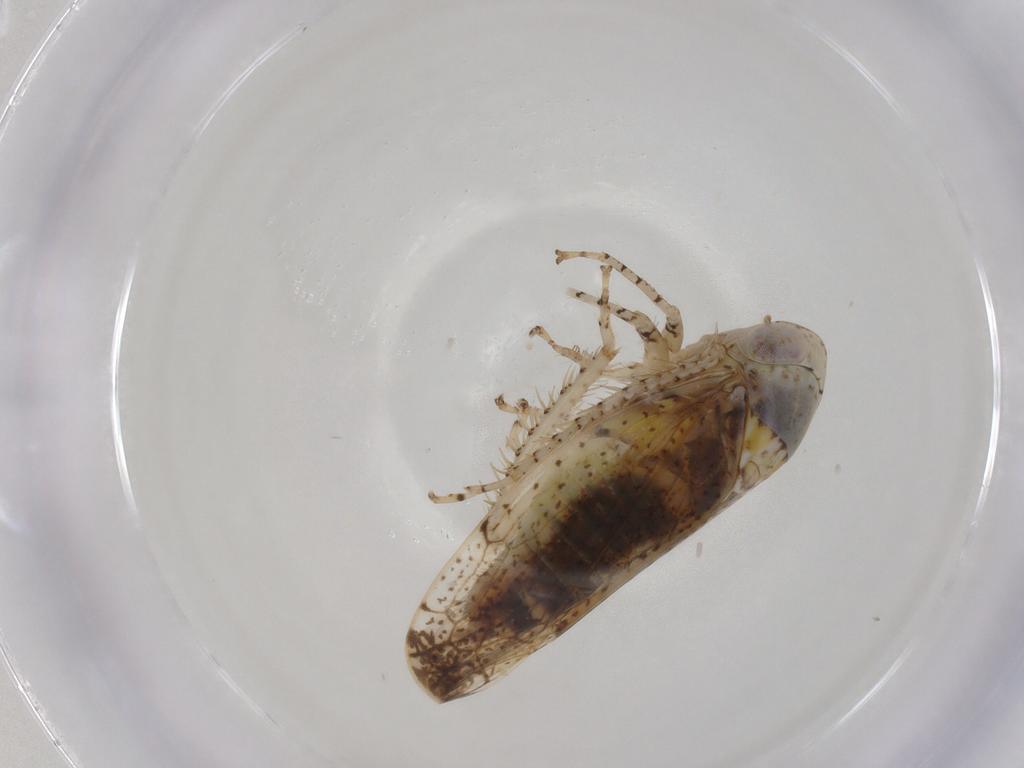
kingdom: Animalia
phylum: Arthropoda
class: Insecta
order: Hemiptera
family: Cicadellidae
